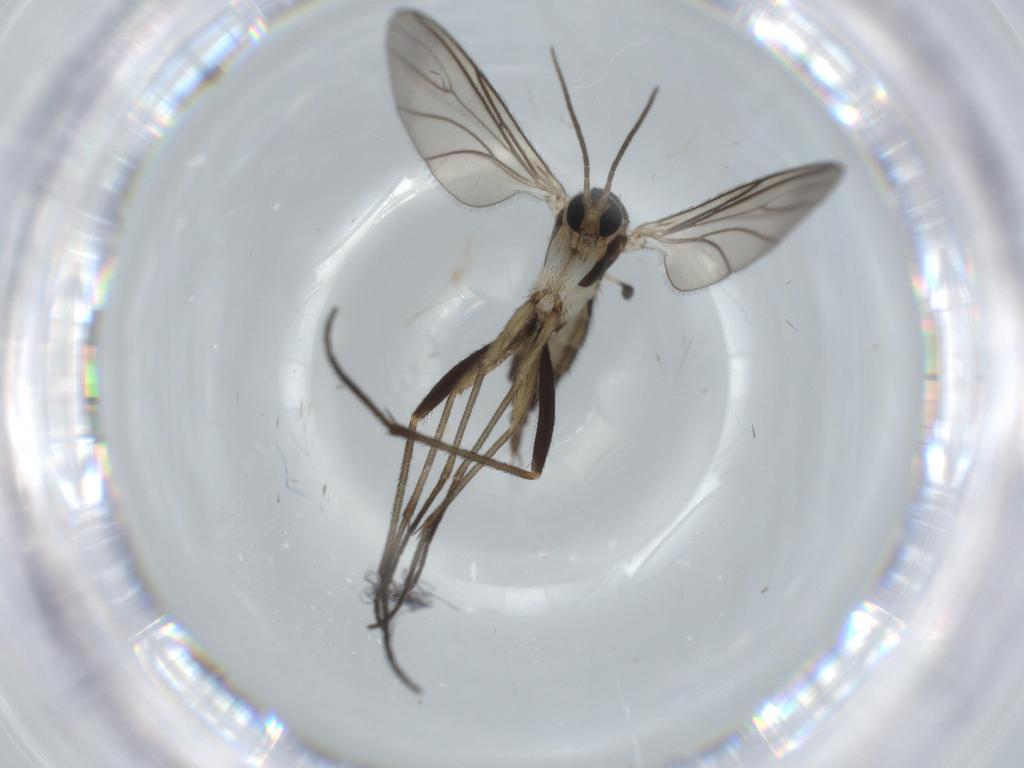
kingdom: Animalia
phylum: Arthropoda
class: Insecta
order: Diptera
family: Sciaridae
